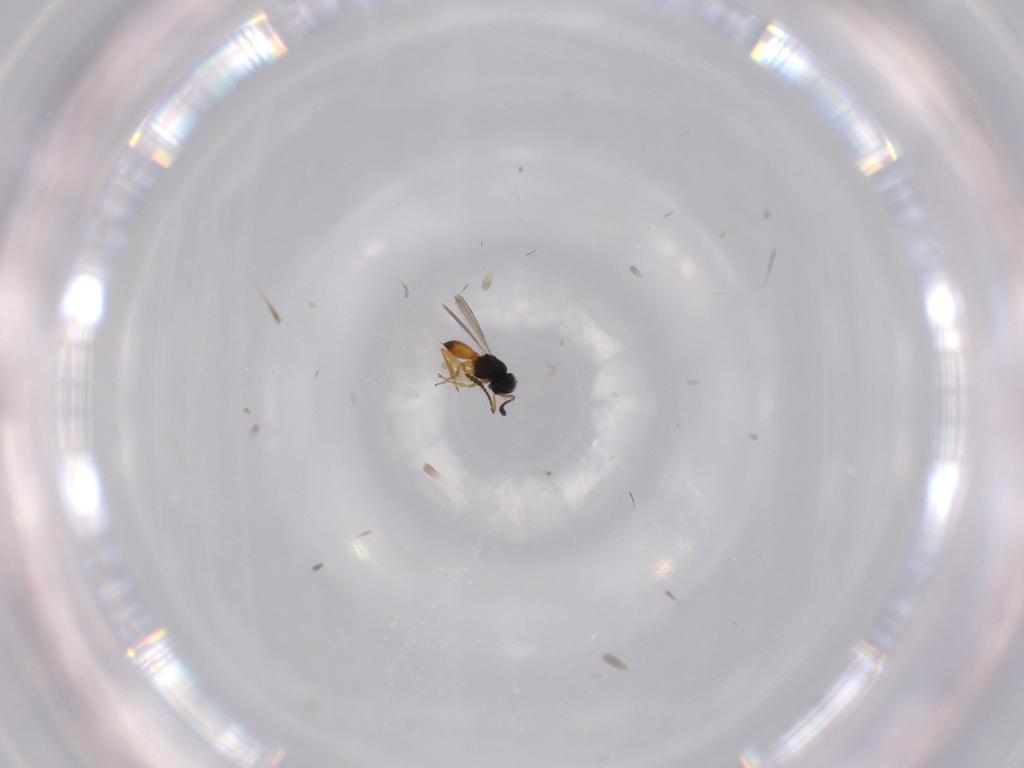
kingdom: Animalia
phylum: Arthropoda
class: Insecta
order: Hymenoptera
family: Scelionidae
